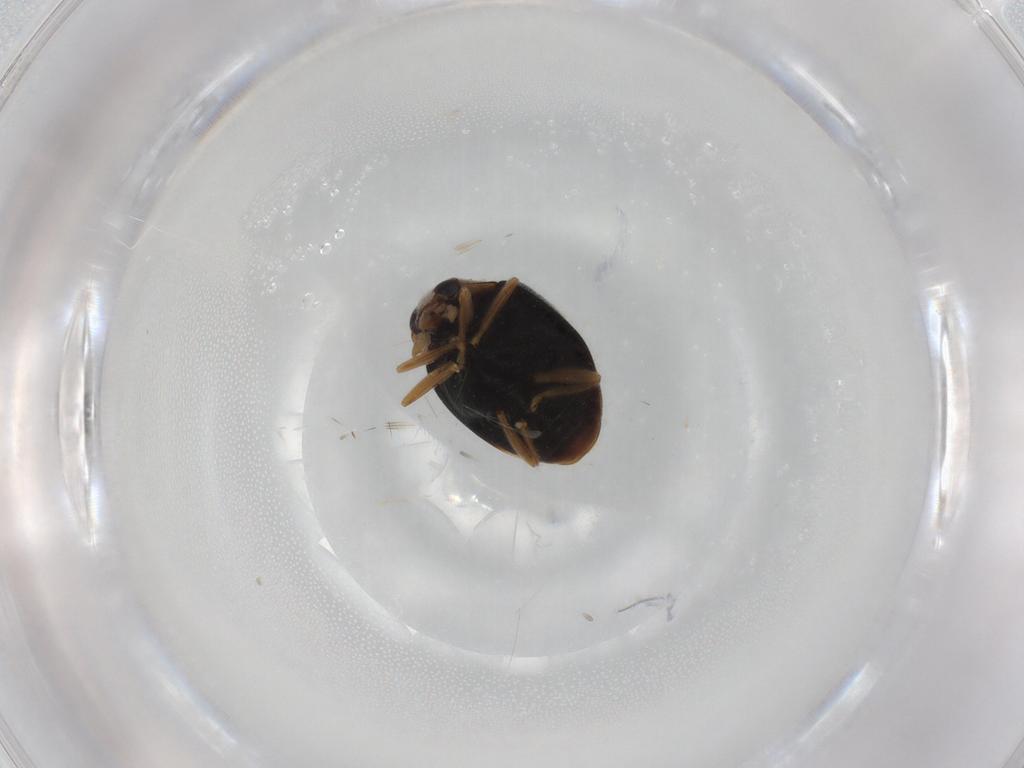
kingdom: Animalia
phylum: Arthropoda
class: Insecta
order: Coleoptera
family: Coccinellidae
